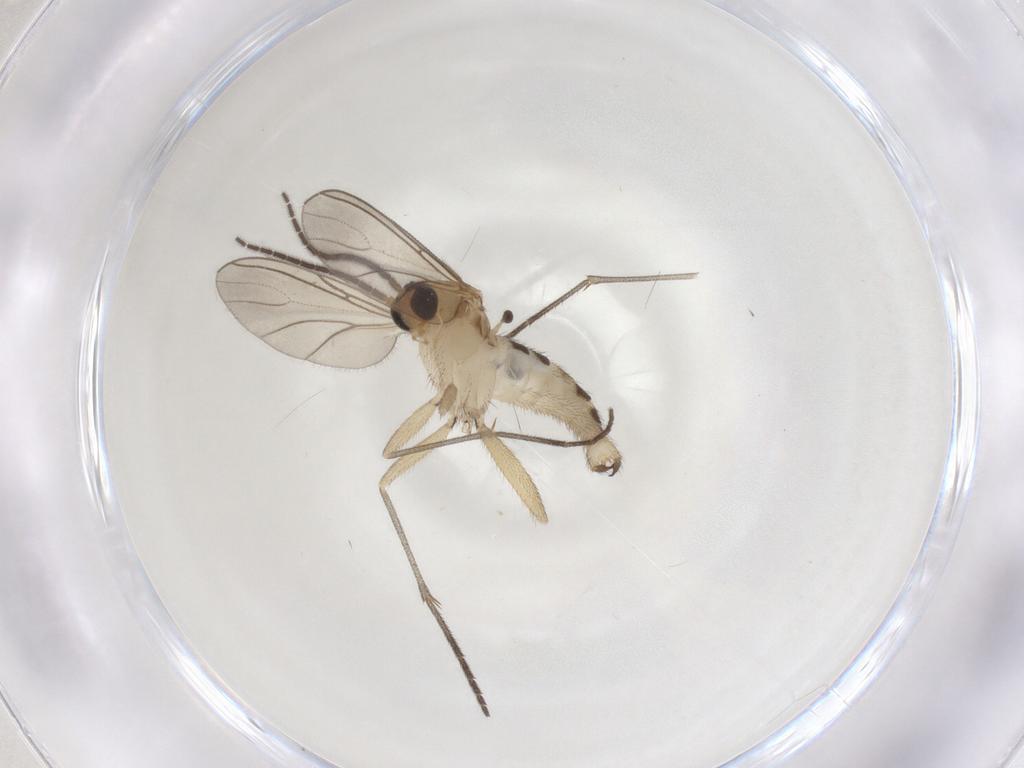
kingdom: Animalia
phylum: Arthropoda
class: Insecta
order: Diptera
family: Sciaridae
